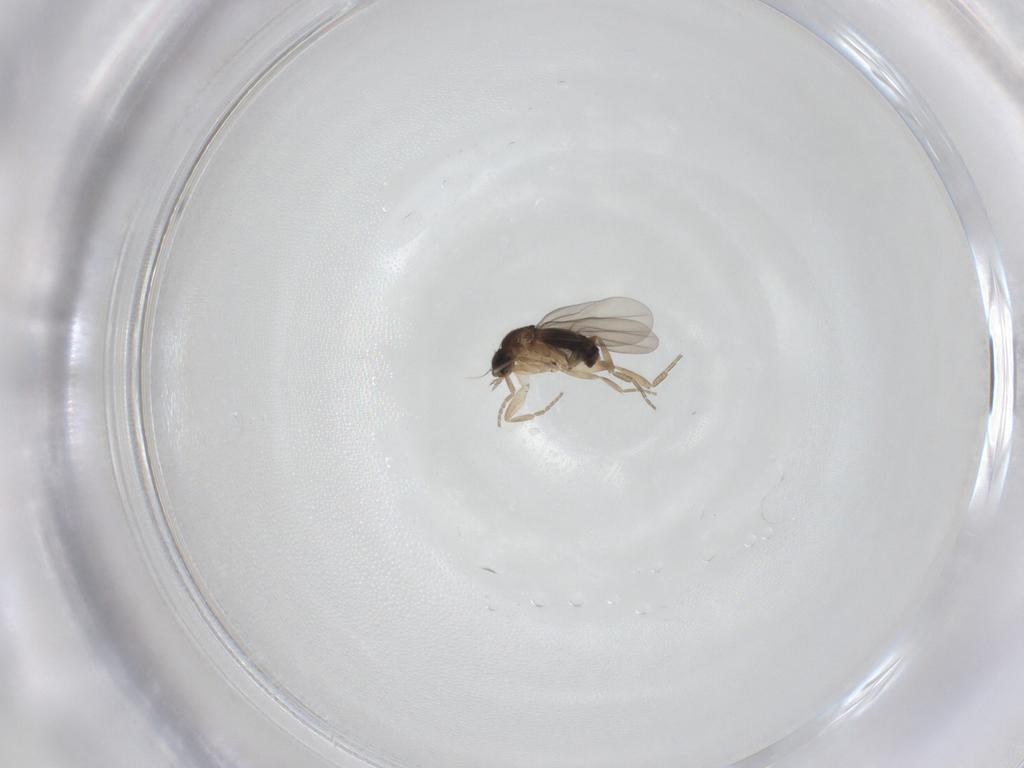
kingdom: Animalia
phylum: Arthropoda
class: Insecta
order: Diptera
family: Phoridae
